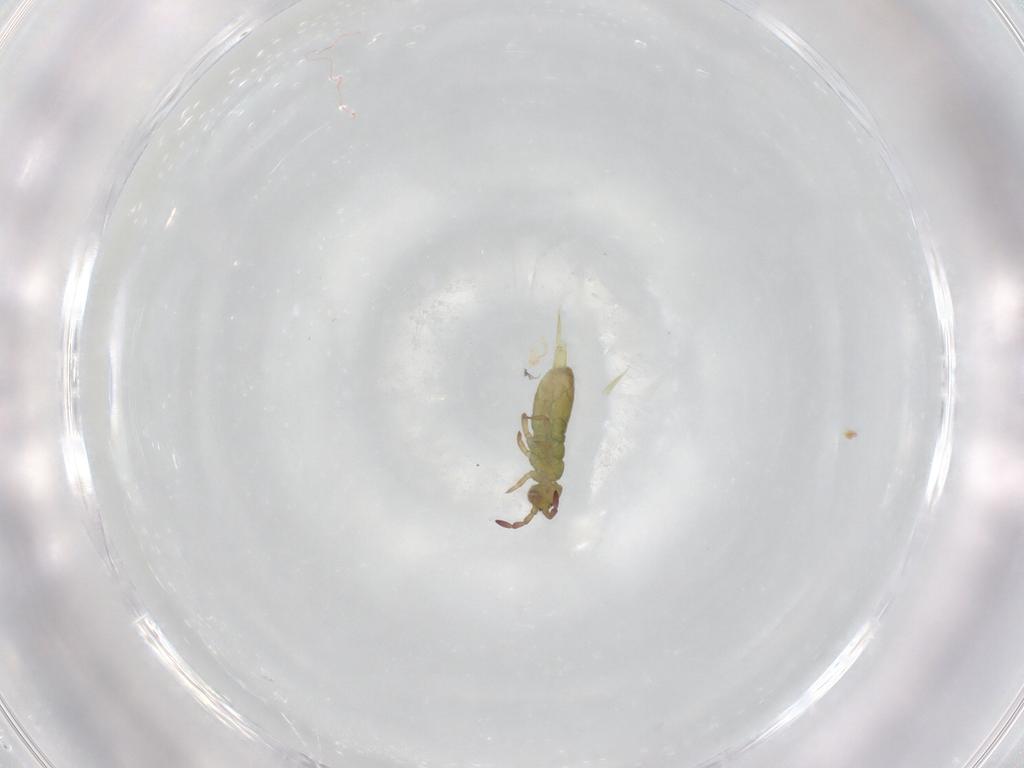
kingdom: Animalia
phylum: Arthropoda
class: Collembola
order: Entomobryomorpha
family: Isotomidae
